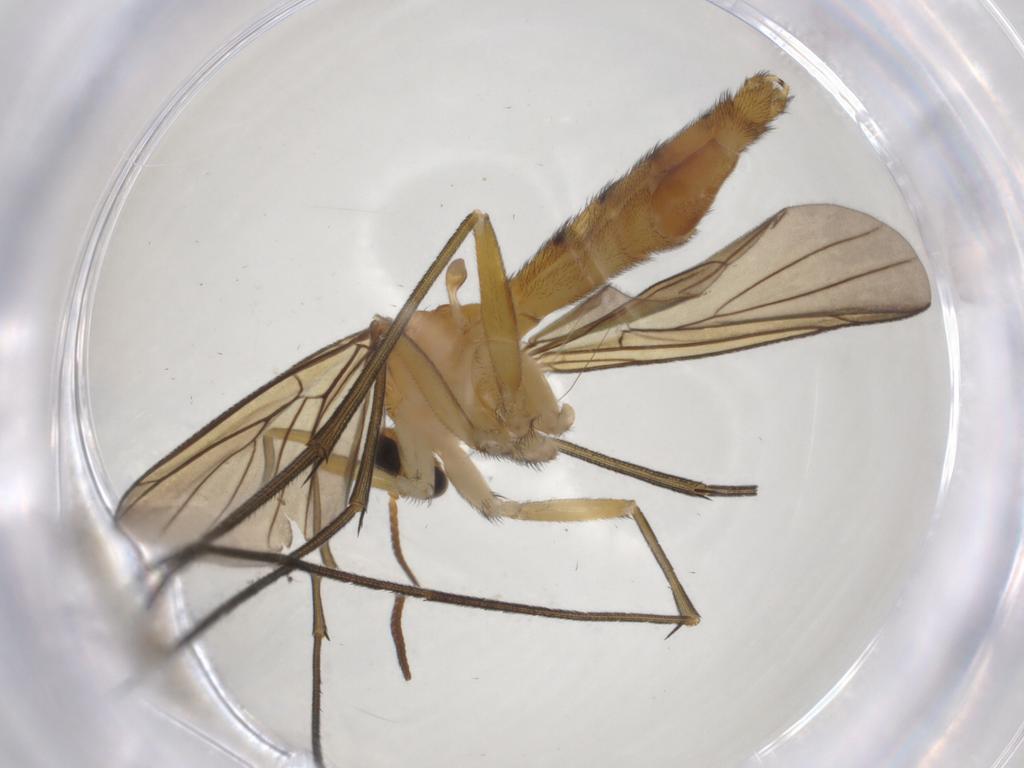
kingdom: Animalia
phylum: Arthropoda
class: Insecta
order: Diptera
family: Keroplatidae
